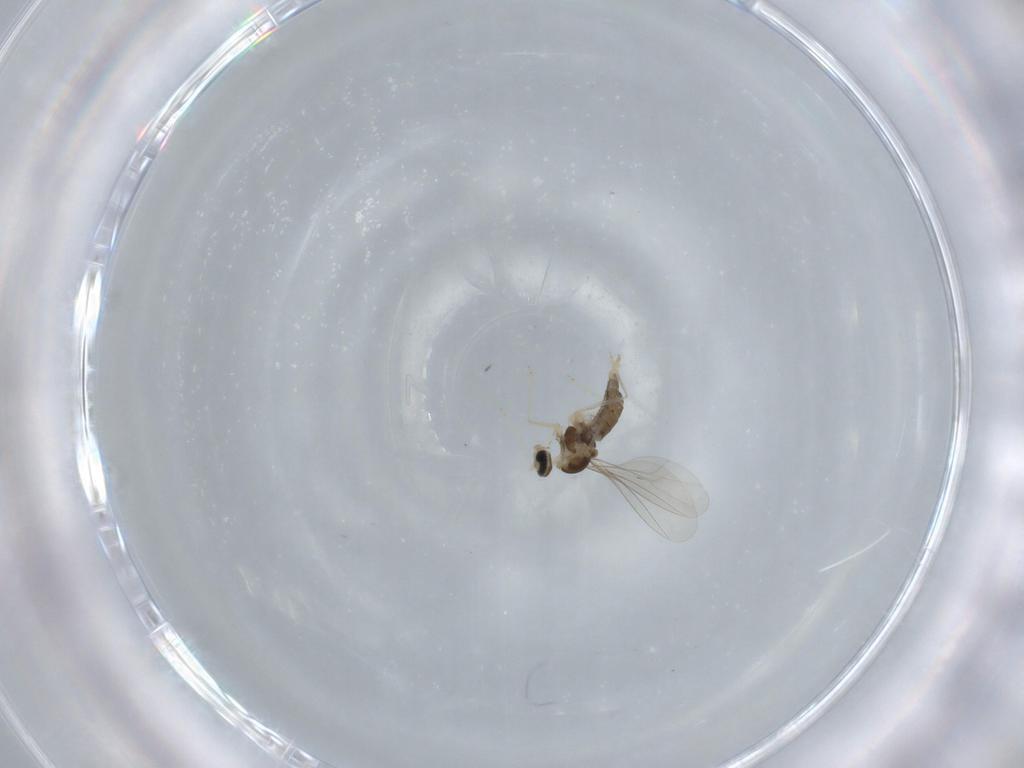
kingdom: Animalia
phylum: Arthropoda
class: Insecta
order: Diptera
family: Cecidomyiidae
